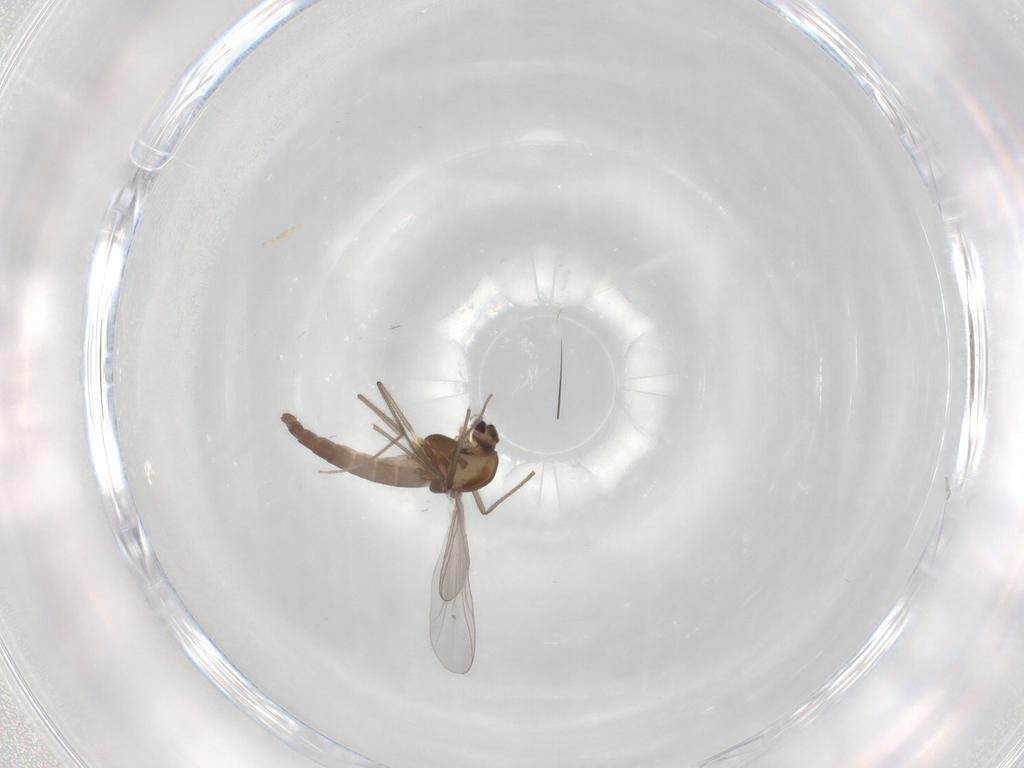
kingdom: Animalia
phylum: Arthropoda
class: Insecta
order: Diptera
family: Chironomidae
